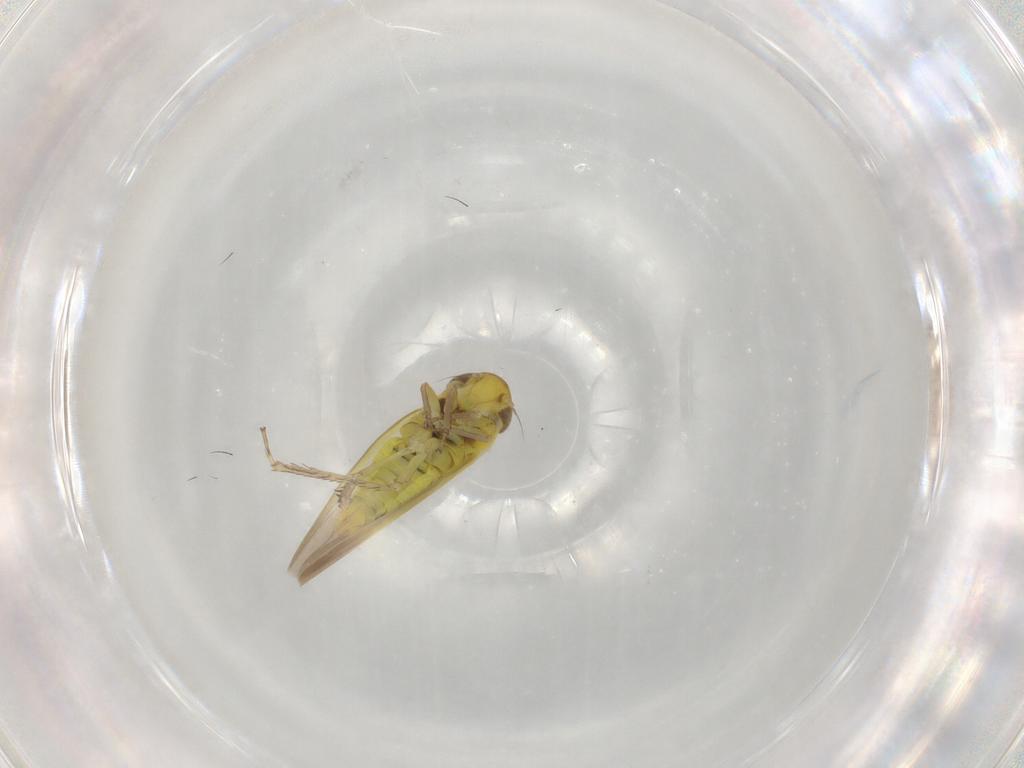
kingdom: Animalia
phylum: Arthropoda
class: Insecta
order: Hemiptera
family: Cicadellidae
